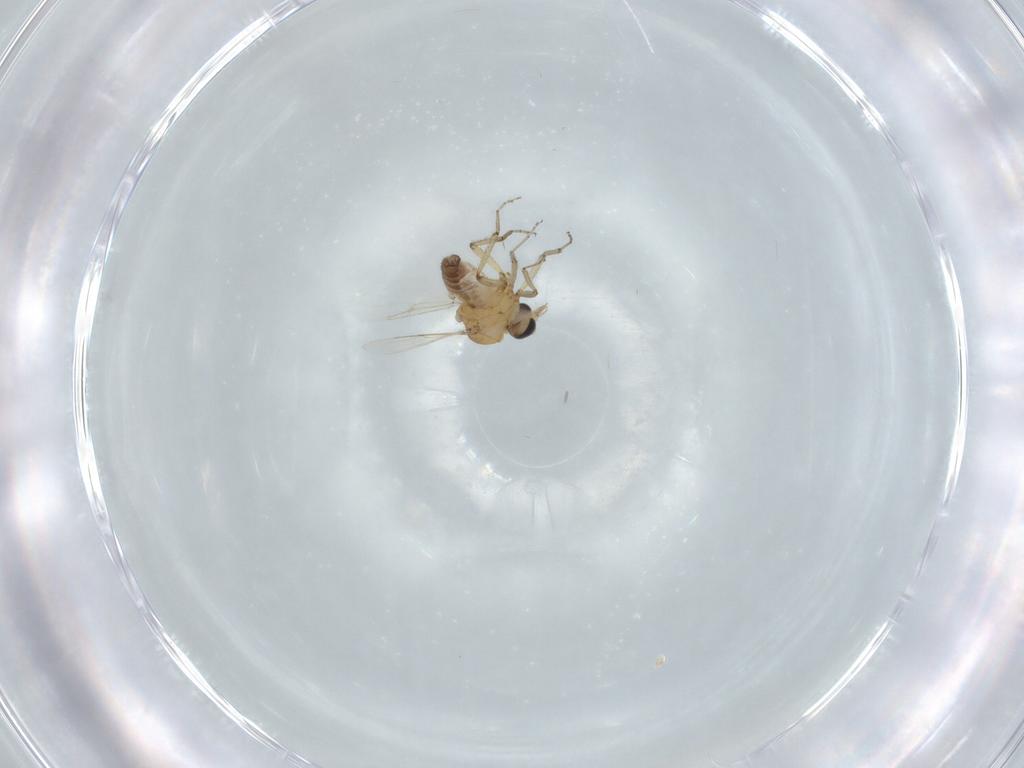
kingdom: Animalia
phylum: Arthropoda
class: Insecta
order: Diptera
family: Ceratopogonidae
